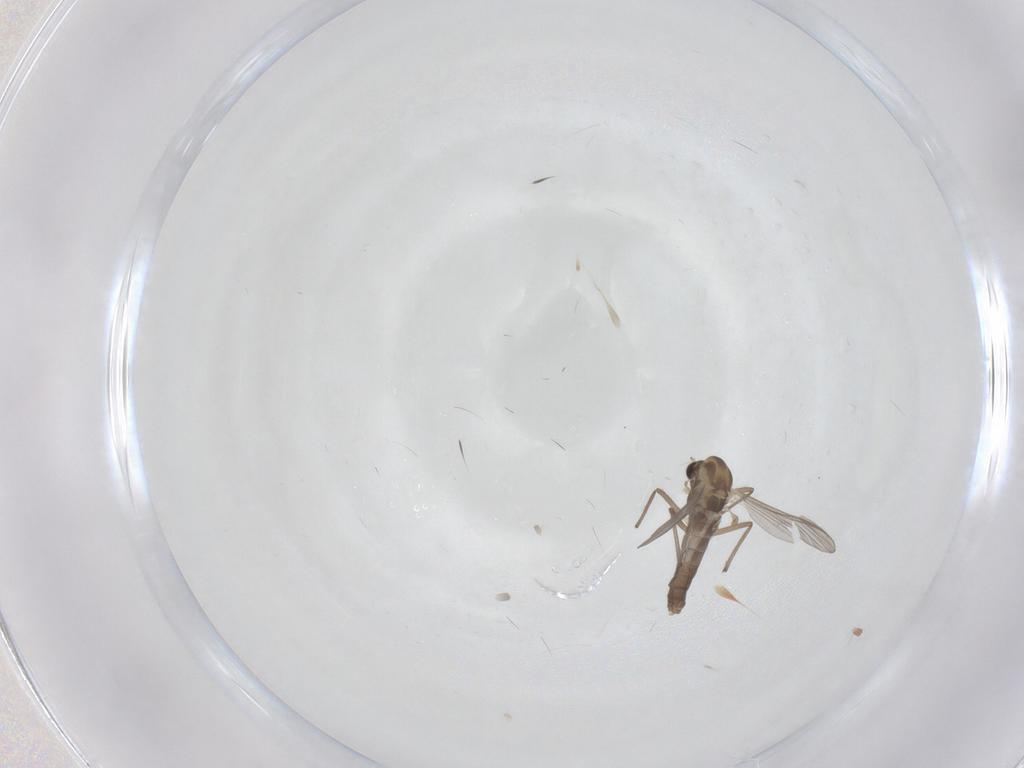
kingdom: Animalia
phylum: Arthropoda
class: Insecta
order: Diptera
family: Chironomidae
